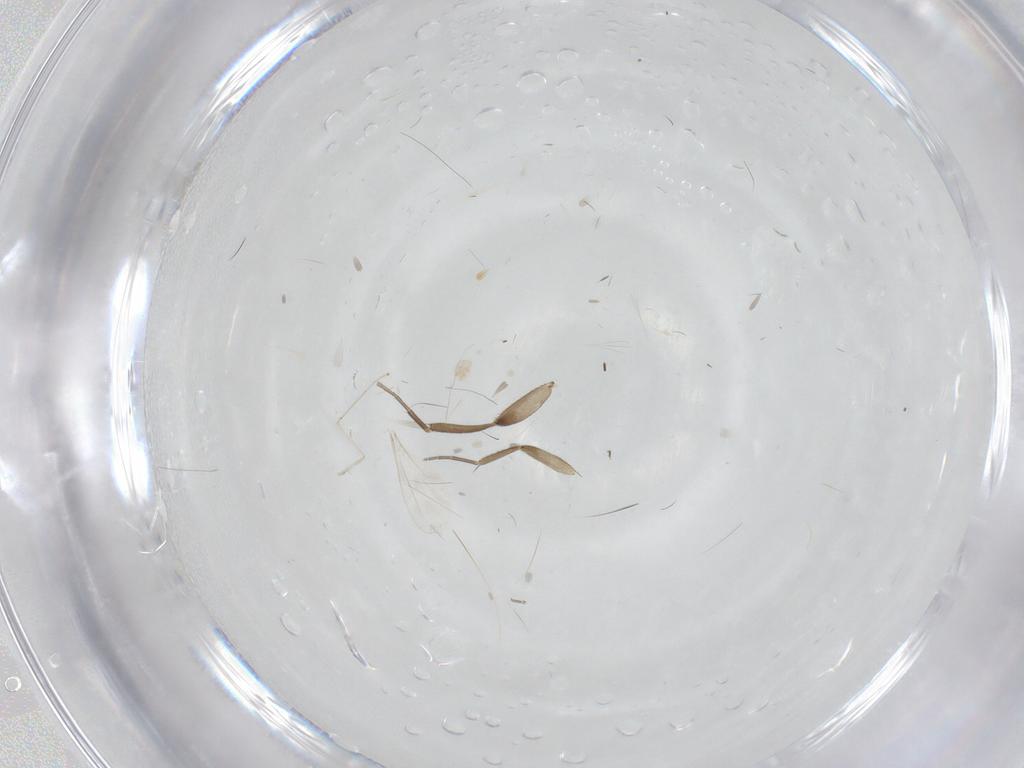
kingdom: Animalia
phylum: Arthropoda
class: Insecta
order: Diptera
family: Phoridae
